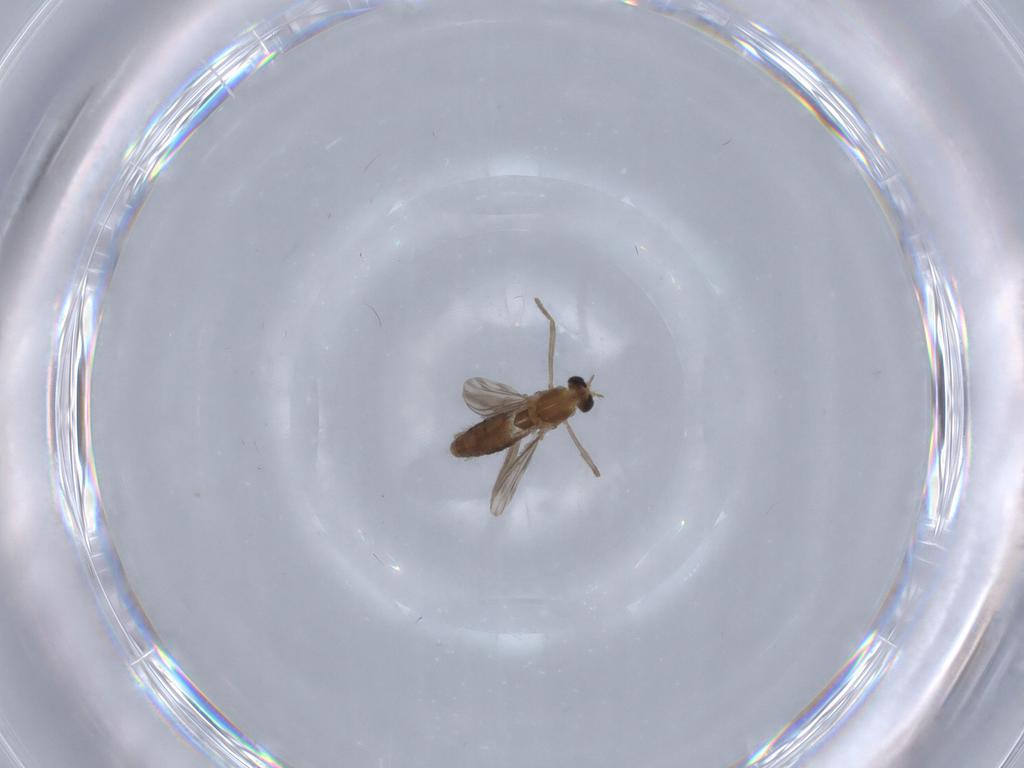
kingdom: Animalia
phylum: Arthropoda
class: Insecta
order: Diptera
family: Chironomidae
